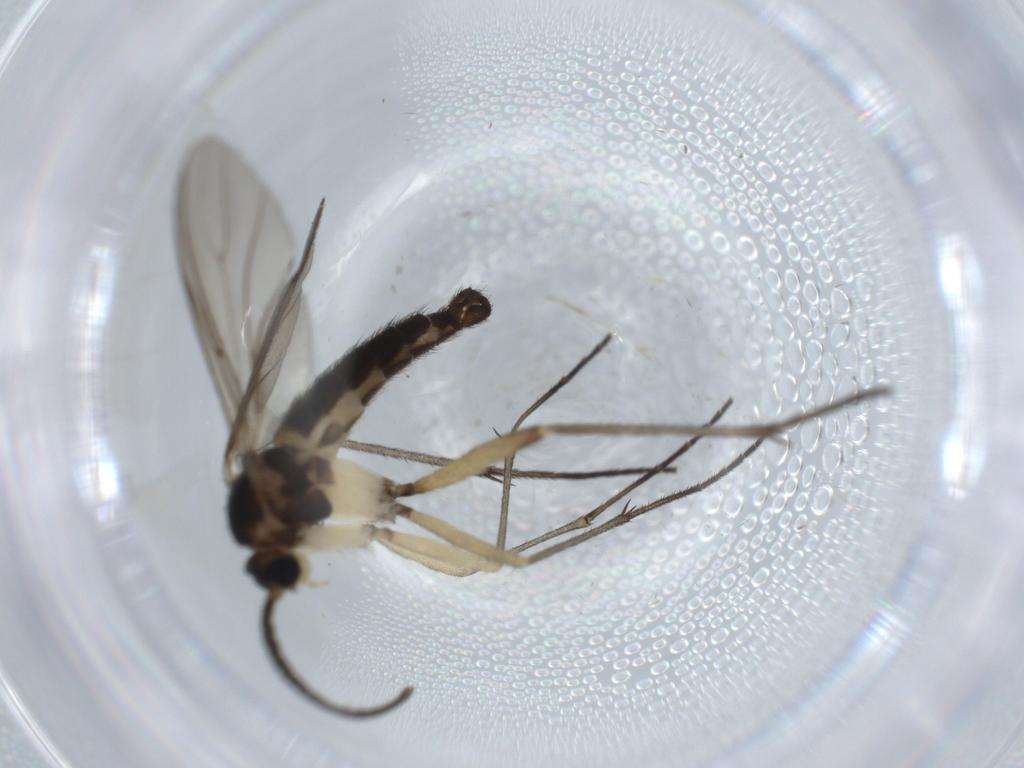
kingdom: Animalia
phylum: Arthropoda
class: Insecta
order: Diptera
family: Sciaridae
